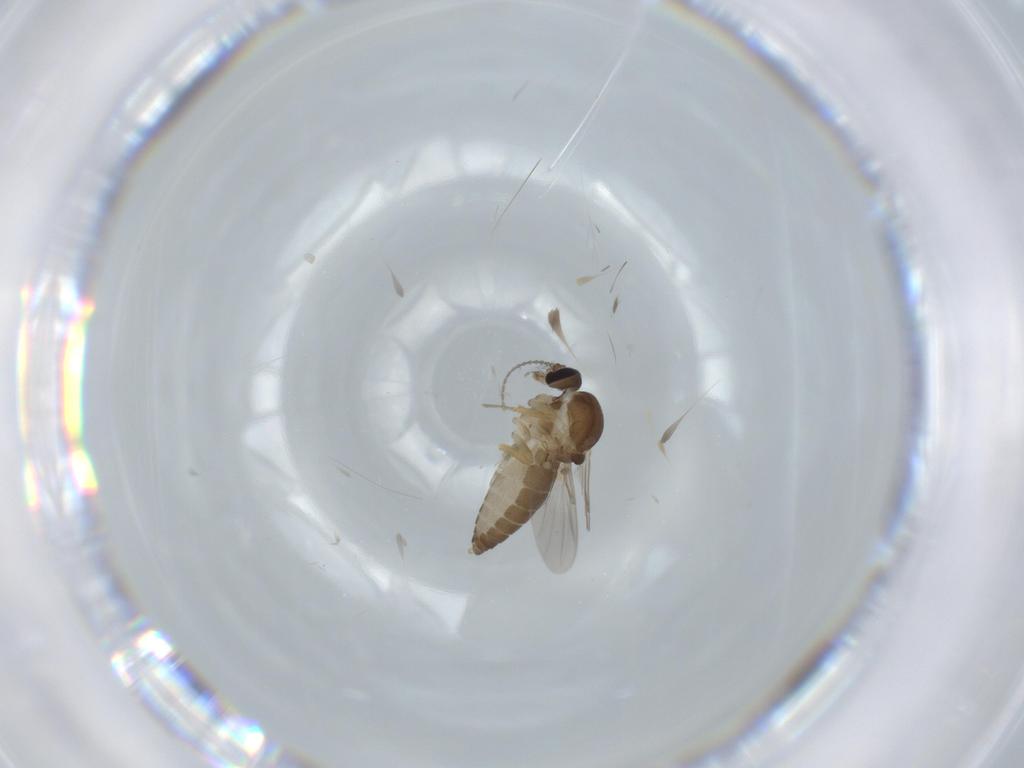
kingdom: Animalia
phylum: Arthropoda
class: Insecta
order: Diptera
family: Ceratopogonidae
